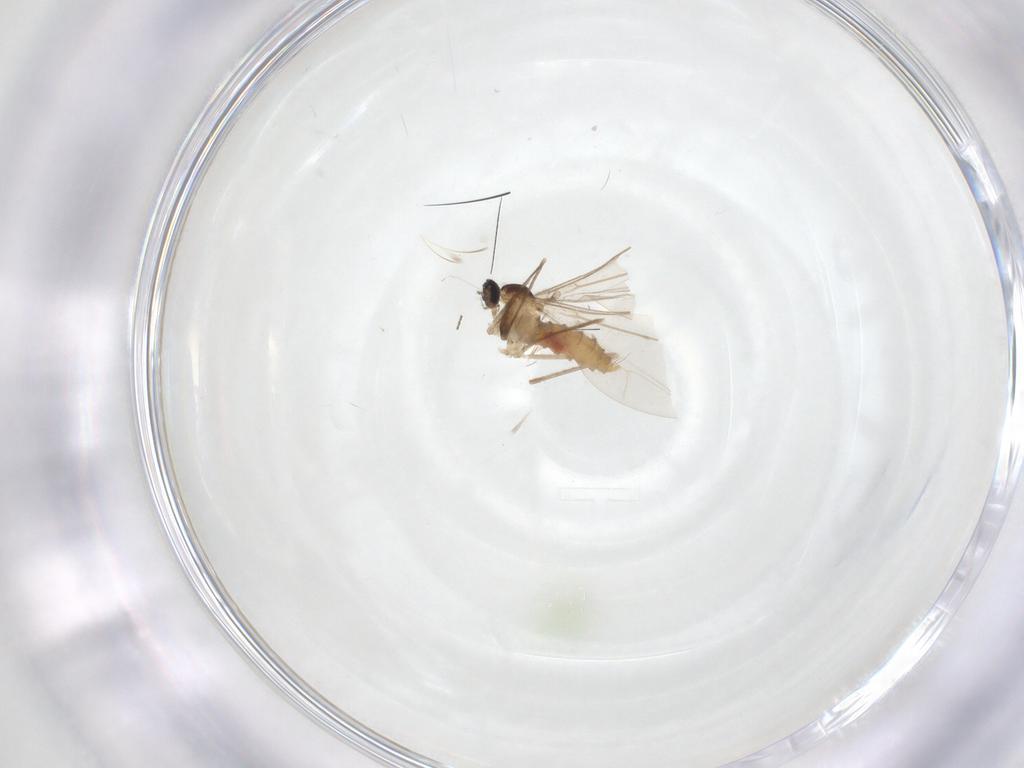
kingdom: Animalia
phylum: Arthropoda
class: Insecta
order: Diptera
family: Cecidomyiidae
